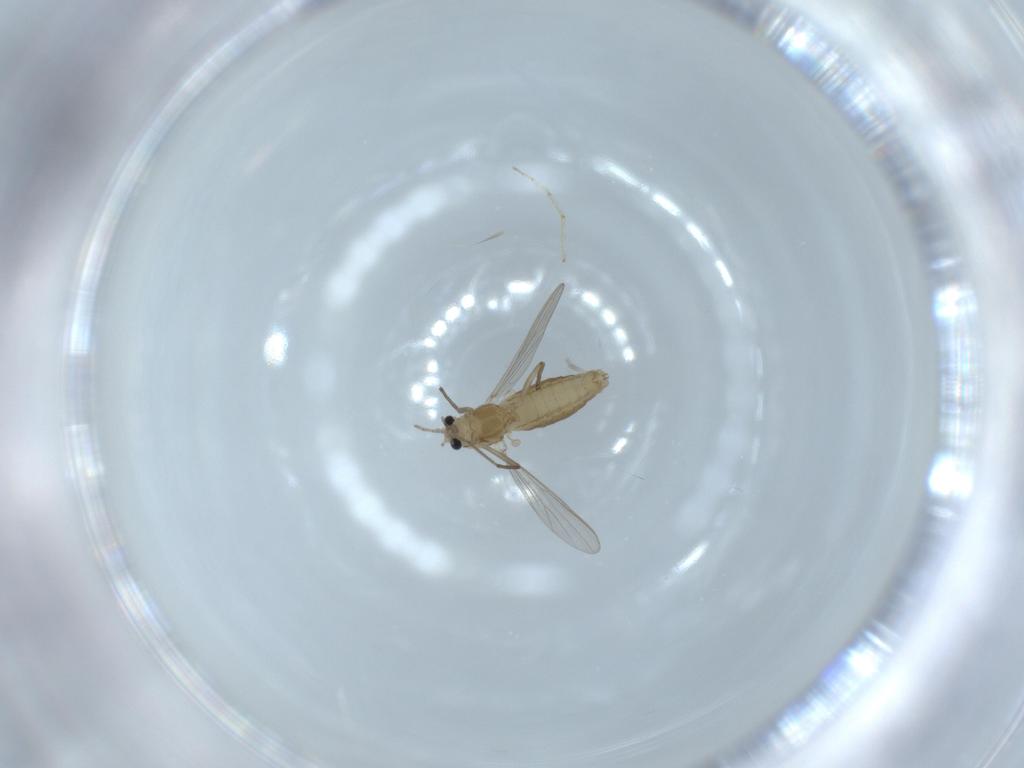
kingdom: Animalia
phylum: Arthropoda
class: Insecta
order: Diptera
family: Chironomidae
